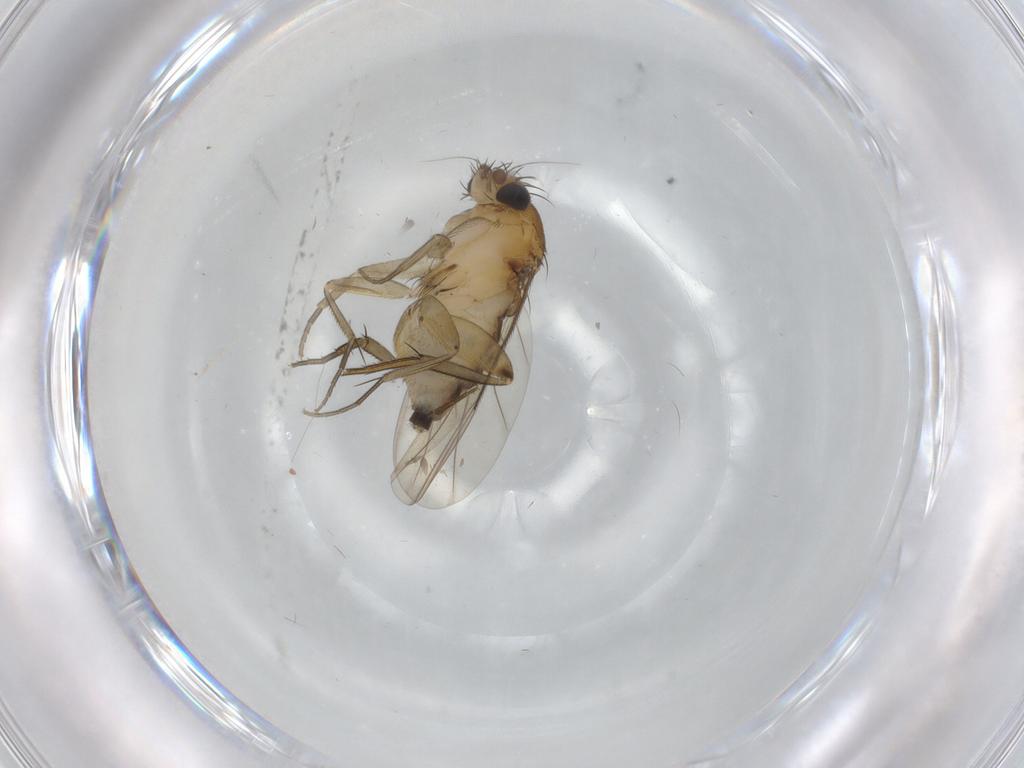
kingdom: Animalia
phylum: Arthropoda
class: Insecta
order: Diptera
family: Phoridae
